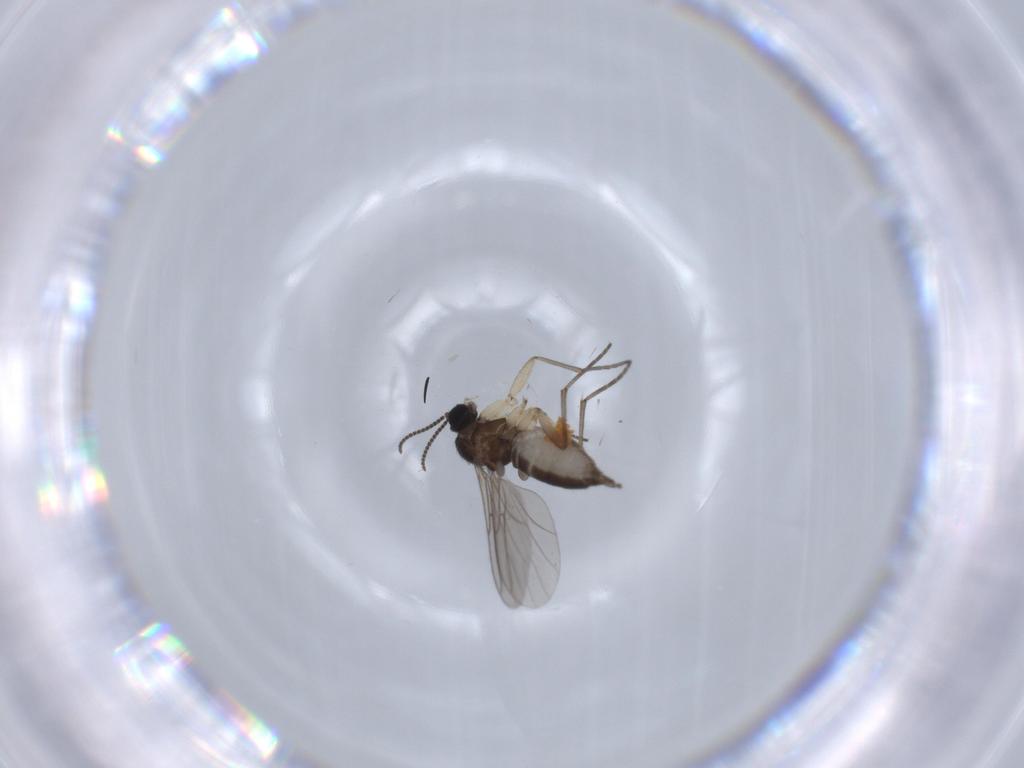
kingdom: Animalia
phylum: Arthropoda
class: Insecta
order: Diptera
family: Sciaridae
